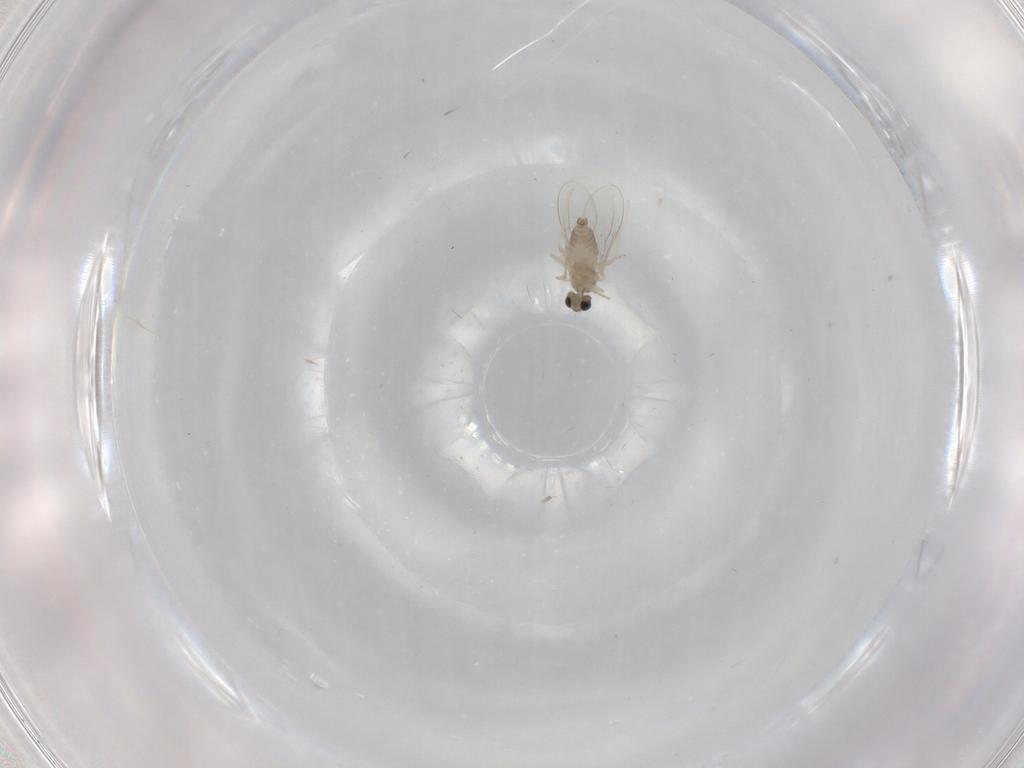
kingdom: Animalia
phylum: Arthropoda
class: Insecta
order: Diptera
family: Cecidomyiidae
